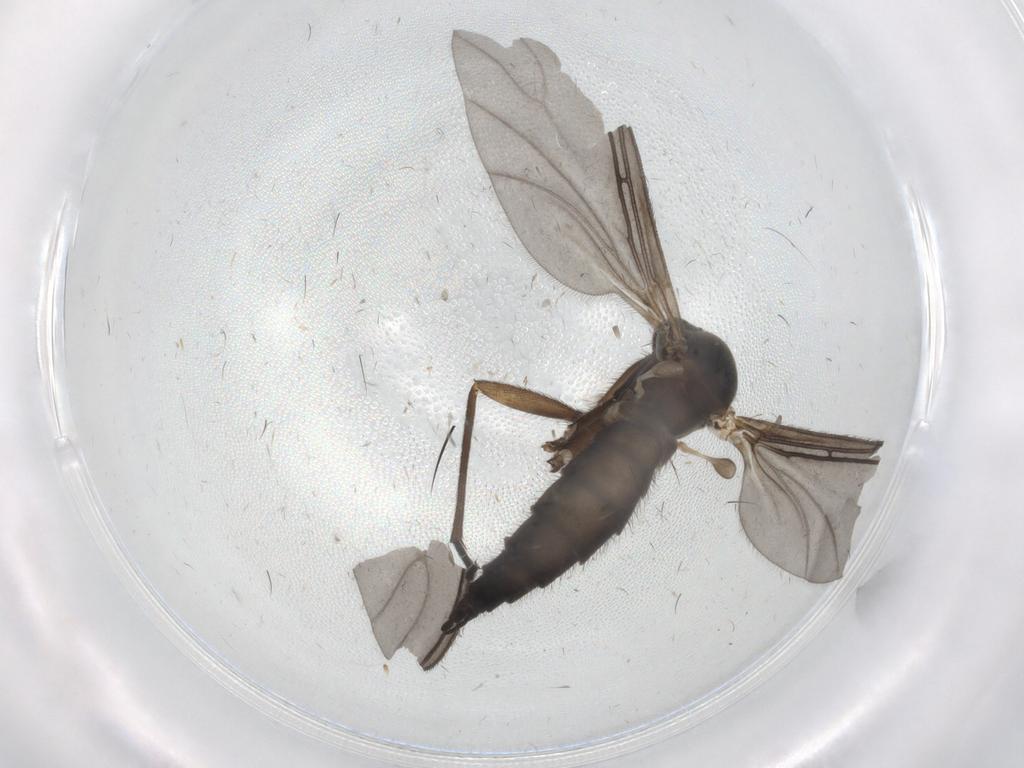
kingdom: Animalia
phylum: Arthropoda
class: Insecta
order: Diptera
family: Sciaridae
